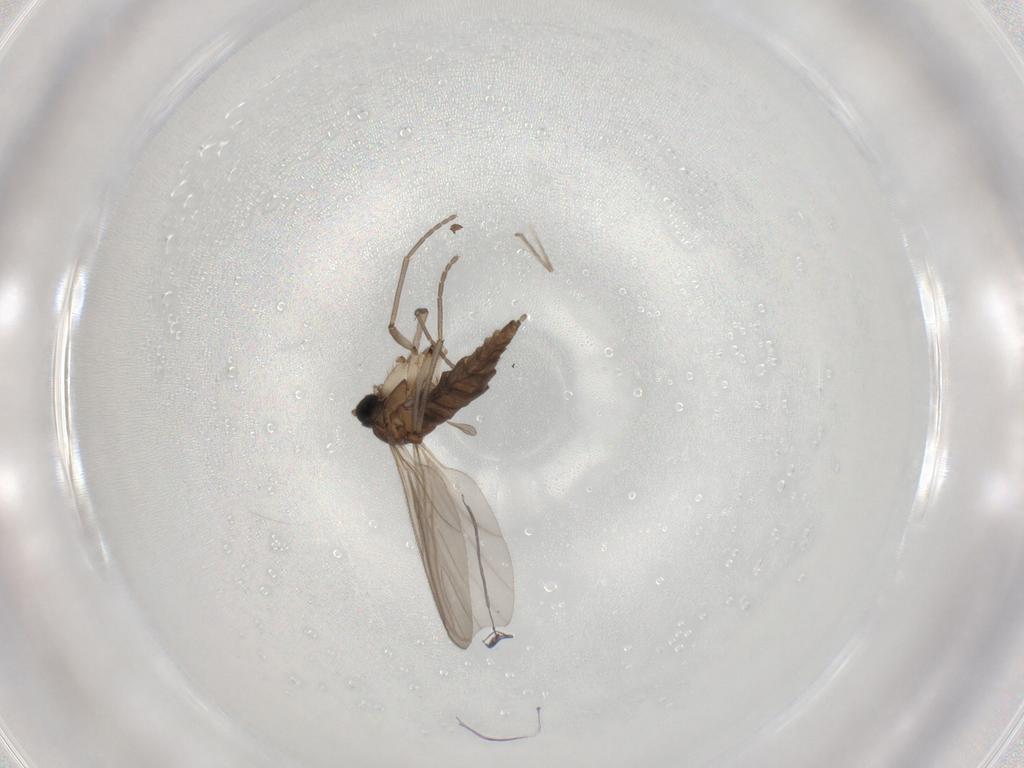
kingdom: Animalia
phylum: Arthropoda
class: Insecta
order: Diptera
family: Sciaridae
